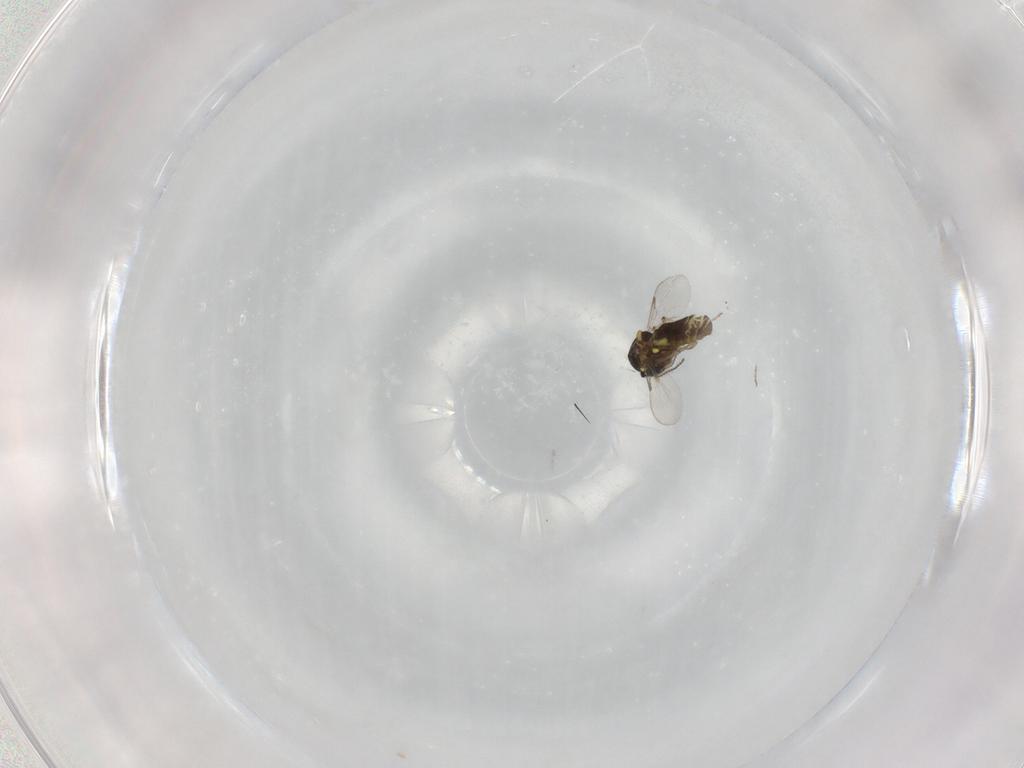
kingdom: Animalia
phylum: Arthropoda
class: Insecta
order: Diptera
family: Ceratopogonidae
